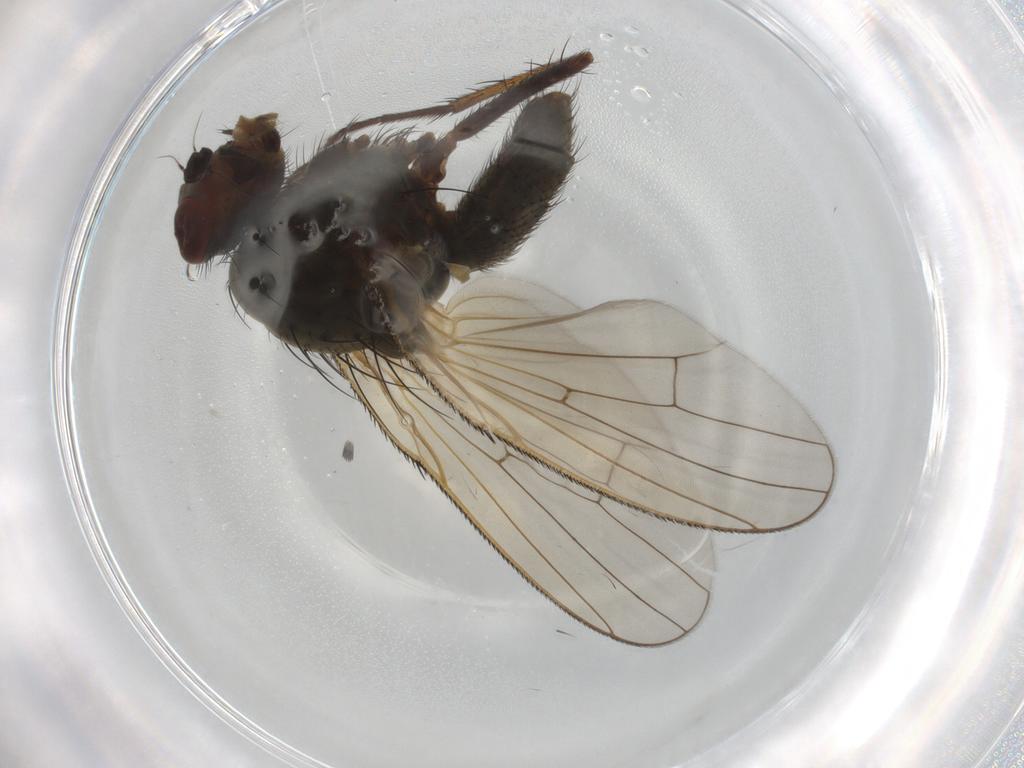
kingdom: Animalia
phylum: Arthropoda
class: Insecta
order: Diptera
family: Anthomyiidae
